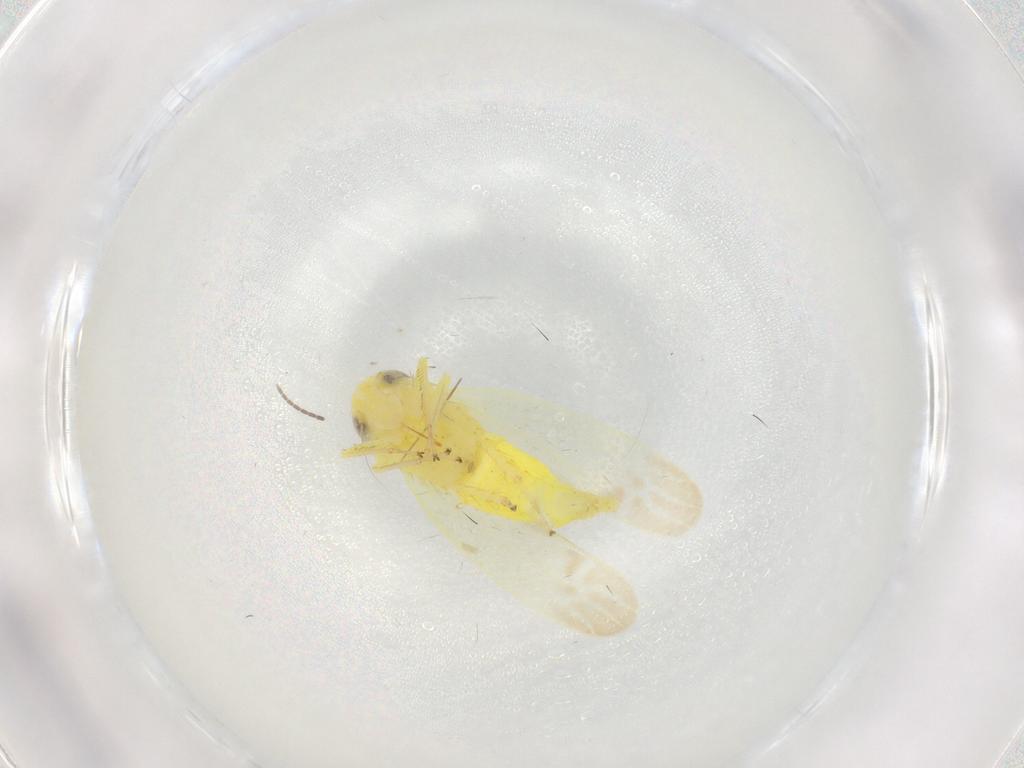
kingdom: Animalia
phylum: Arthropoda
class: Insecta
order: Hemiptera
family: Cicadellidae
